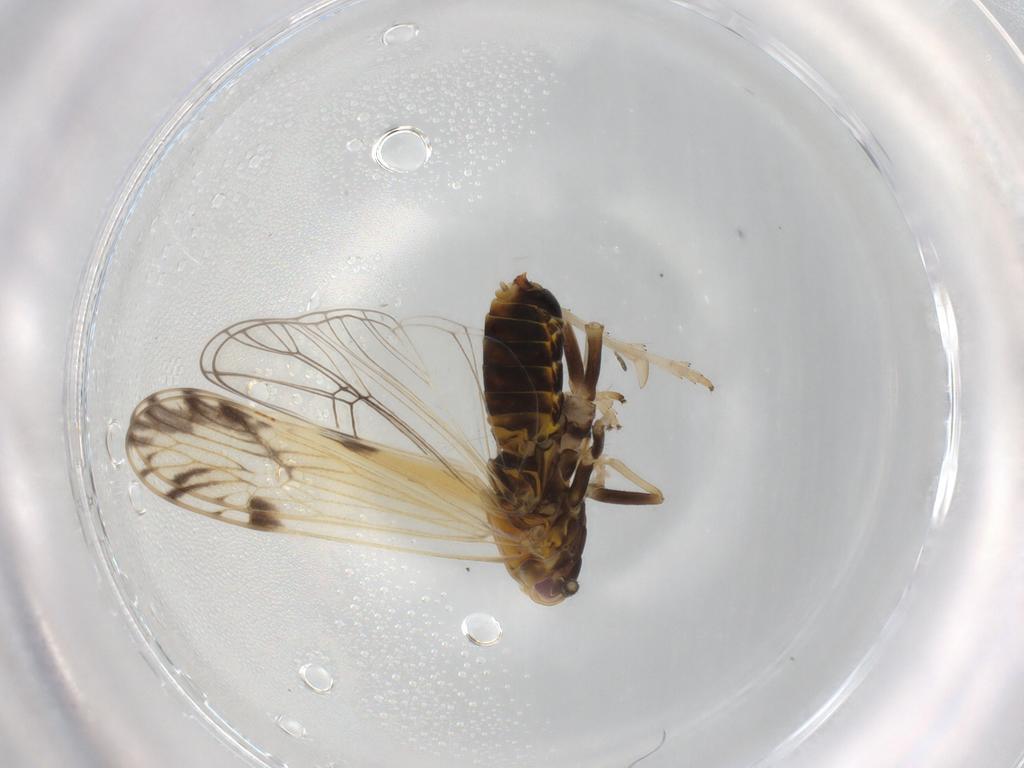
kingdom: Animalia
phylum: Arthropoda
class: Insecta
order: Hemiptera
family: Delphacidae
